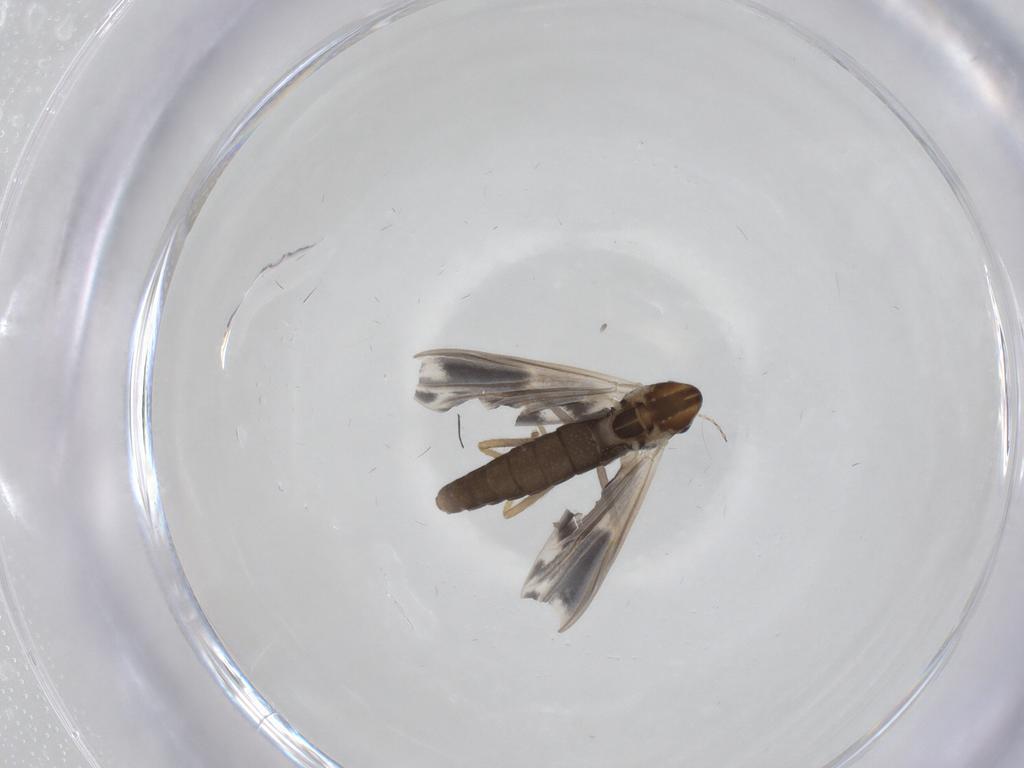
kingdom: Animalia
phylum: Arthropoda
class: Insecta
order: Diptera
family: Chironomidae
